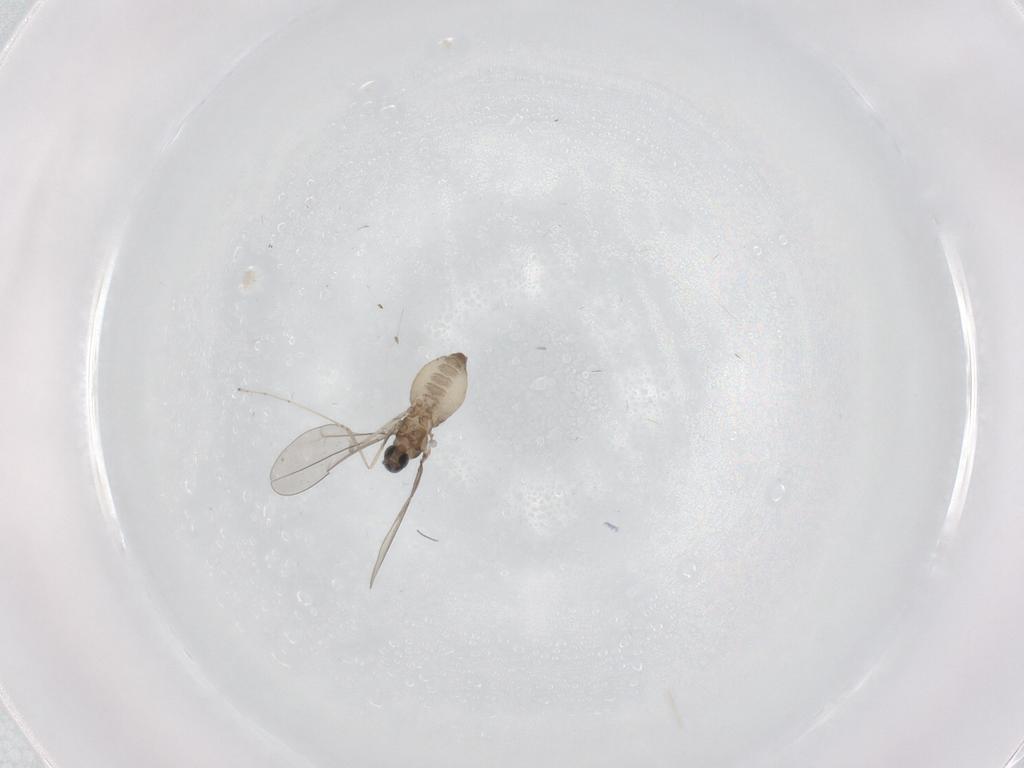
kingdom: Animalia
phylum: Arthropoda
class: Insecta
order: Diptera
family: Cecidomyiidae
